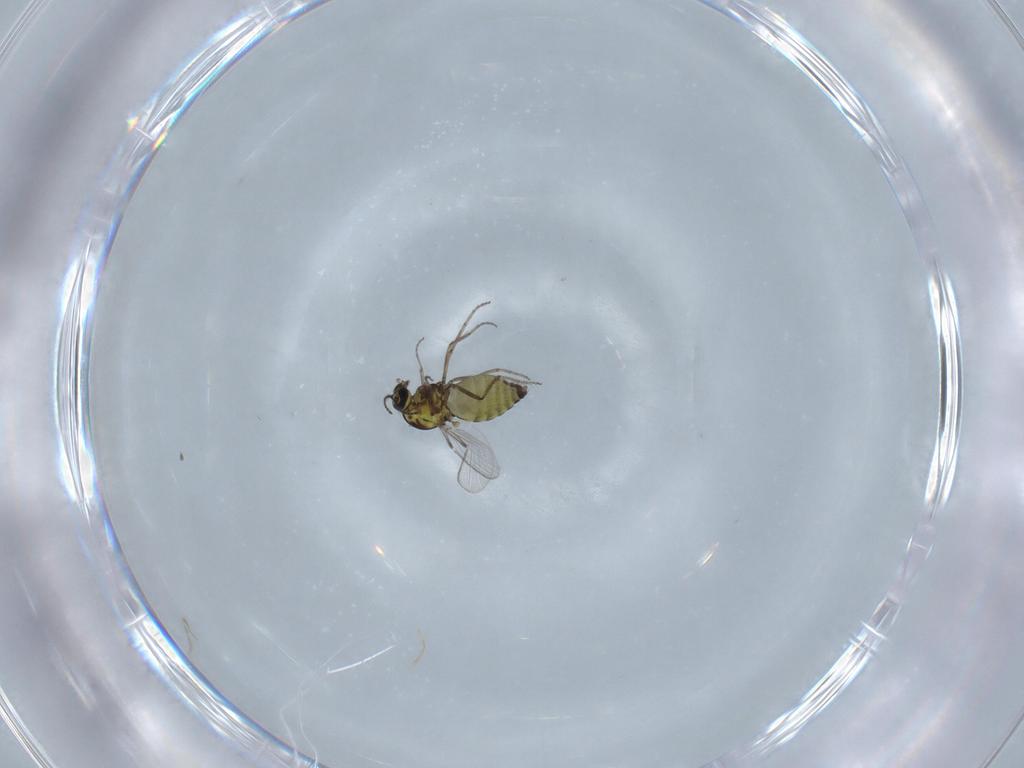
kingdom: Animalia
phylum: Arthropoda
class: Insecta
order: Diptera
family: Ceratopogonidae
